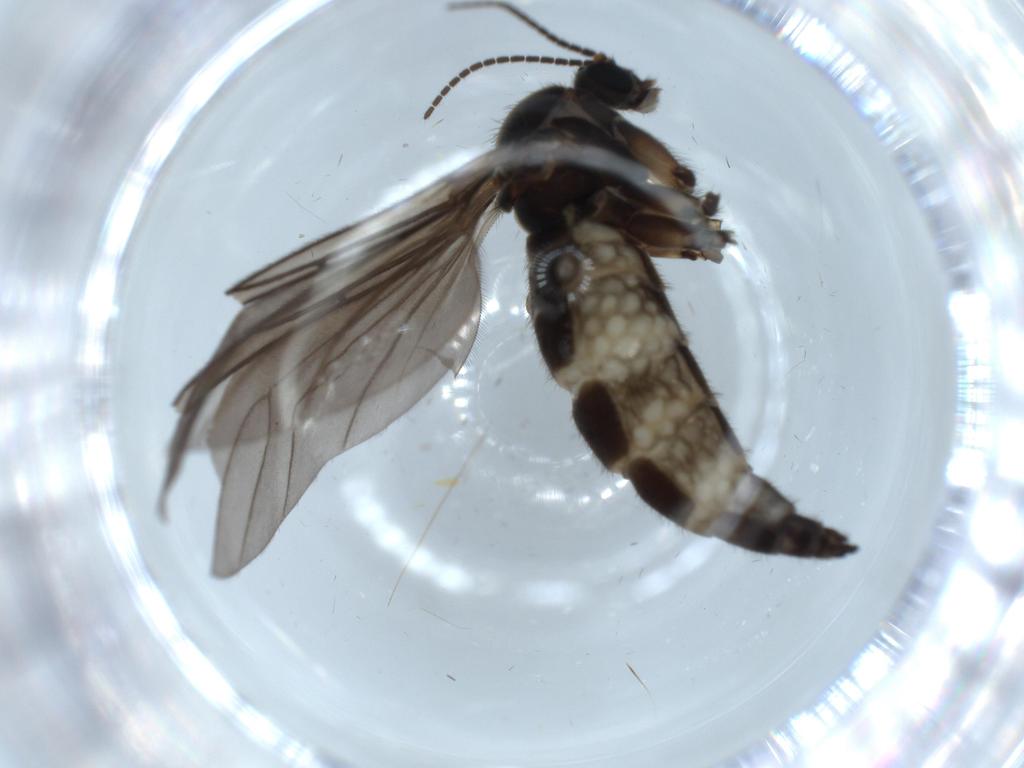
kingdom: Animalia
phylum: Arthropoda
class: Insecta
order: Diptera
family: Sciaridae
